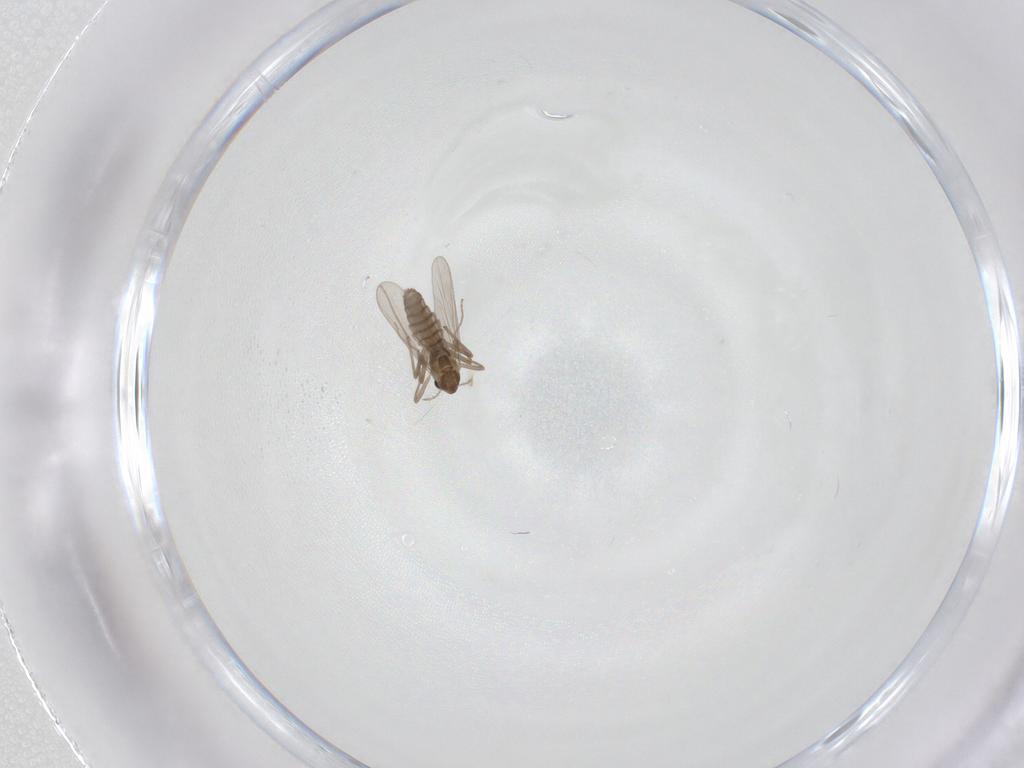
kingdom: Animalia
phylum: Arthropoda
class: Insecta
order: Diptera
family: Chironomidae
